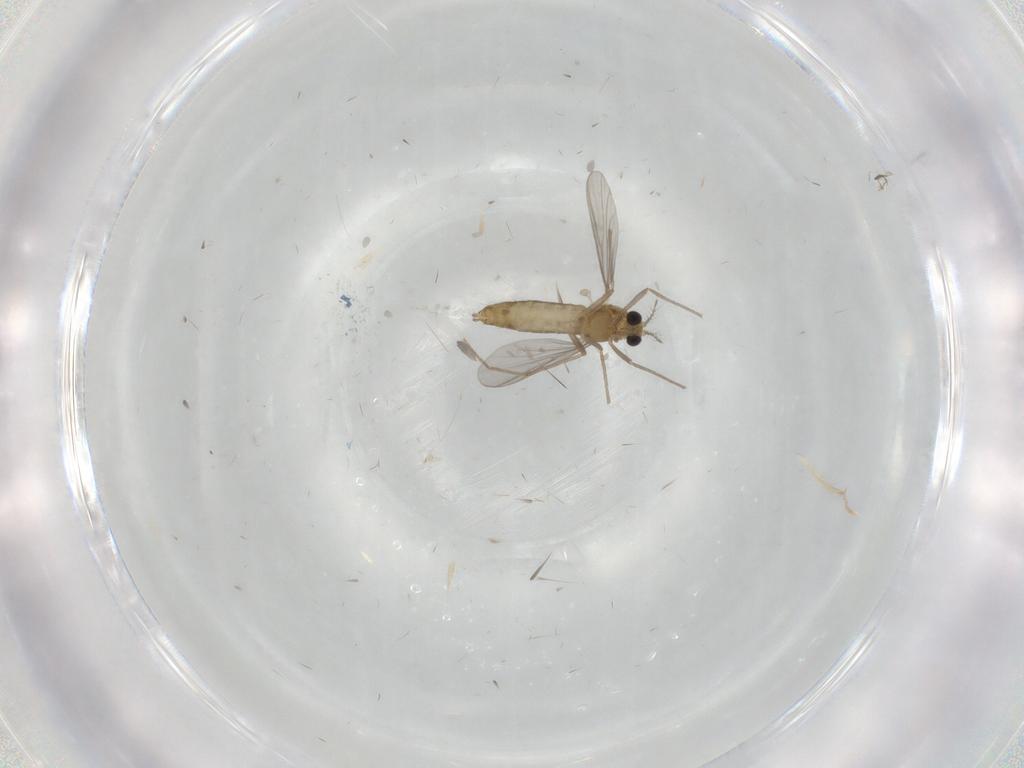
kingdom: Animalia
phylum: Arthropoda
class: Insecta
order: Diptera
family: Chironomidae
